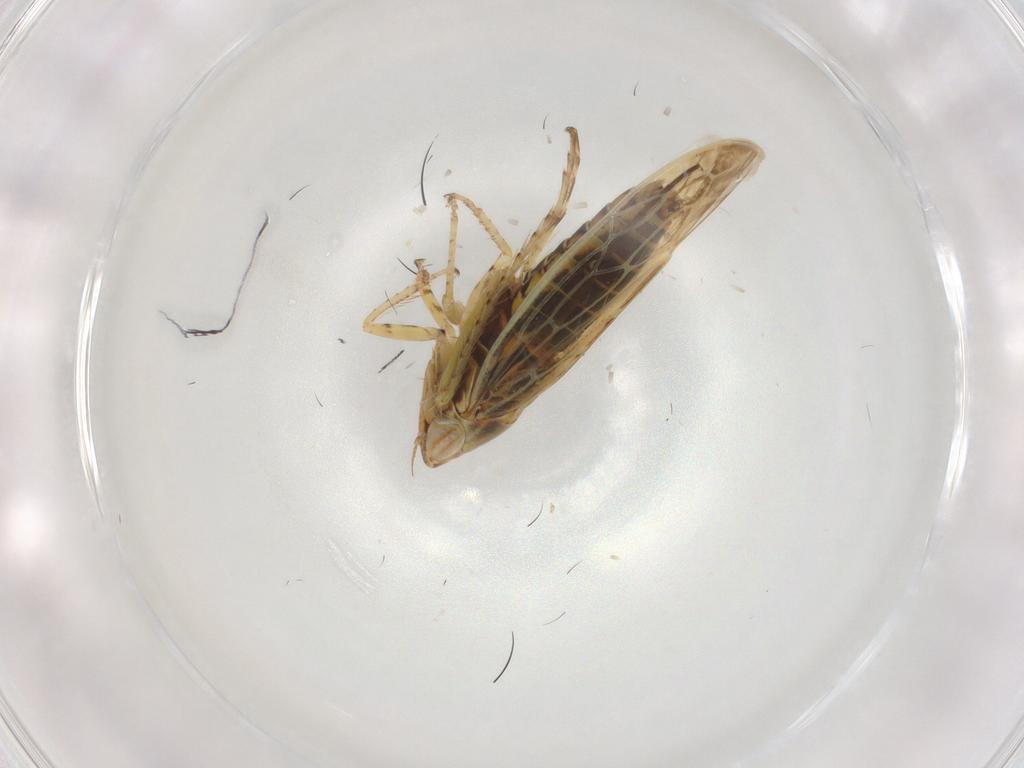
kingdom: Animalia
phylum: Arthropoda
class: Insecta
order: Hemiptera
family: Cicadellidae
